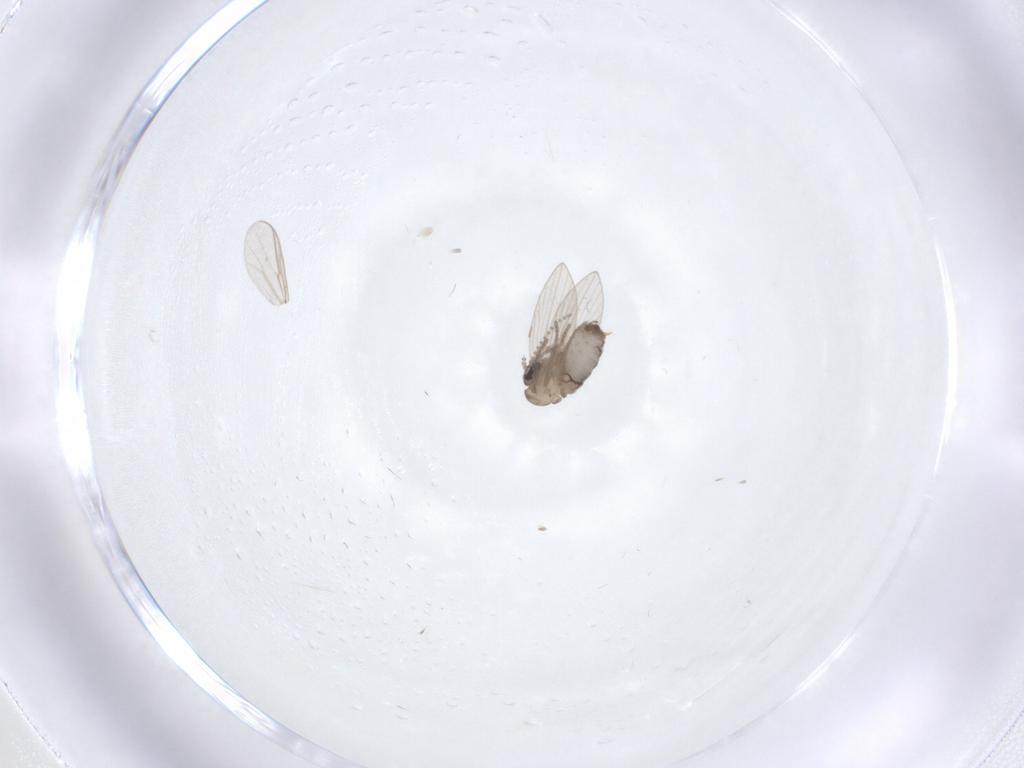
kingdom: Animalia
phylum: Arthropoda
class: Insecta
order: Diptera
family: Psychodidae
